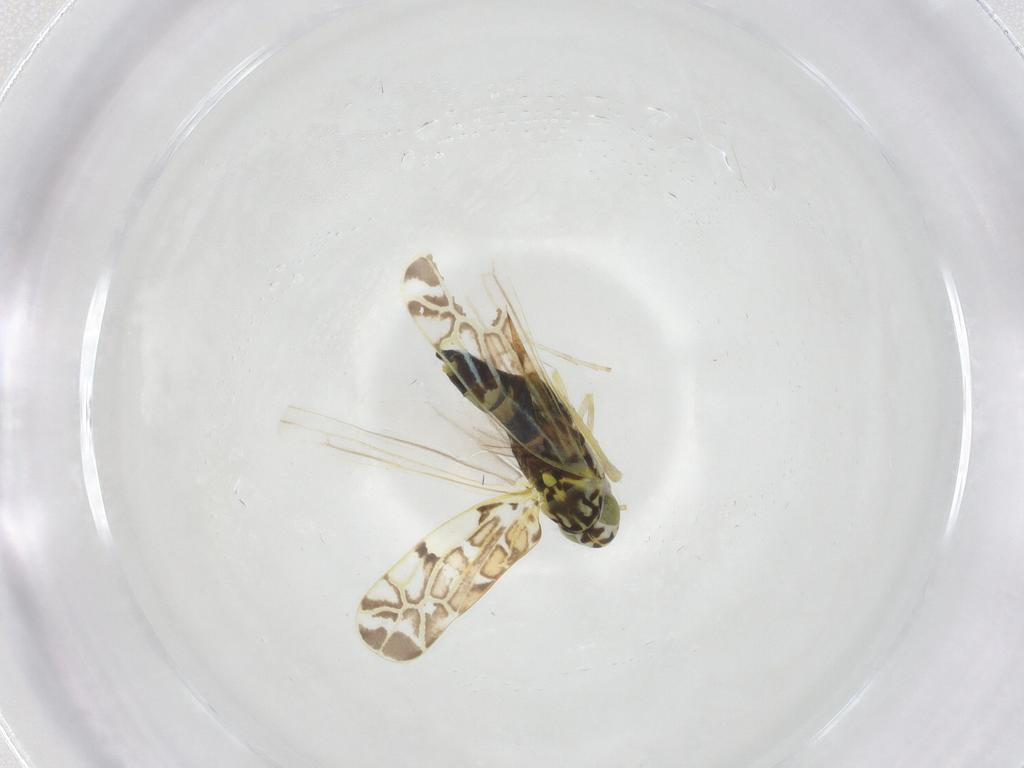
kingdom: Animalia
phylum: Arthropoda
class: Insecta
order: Hemiptera
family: Cicadellidae
